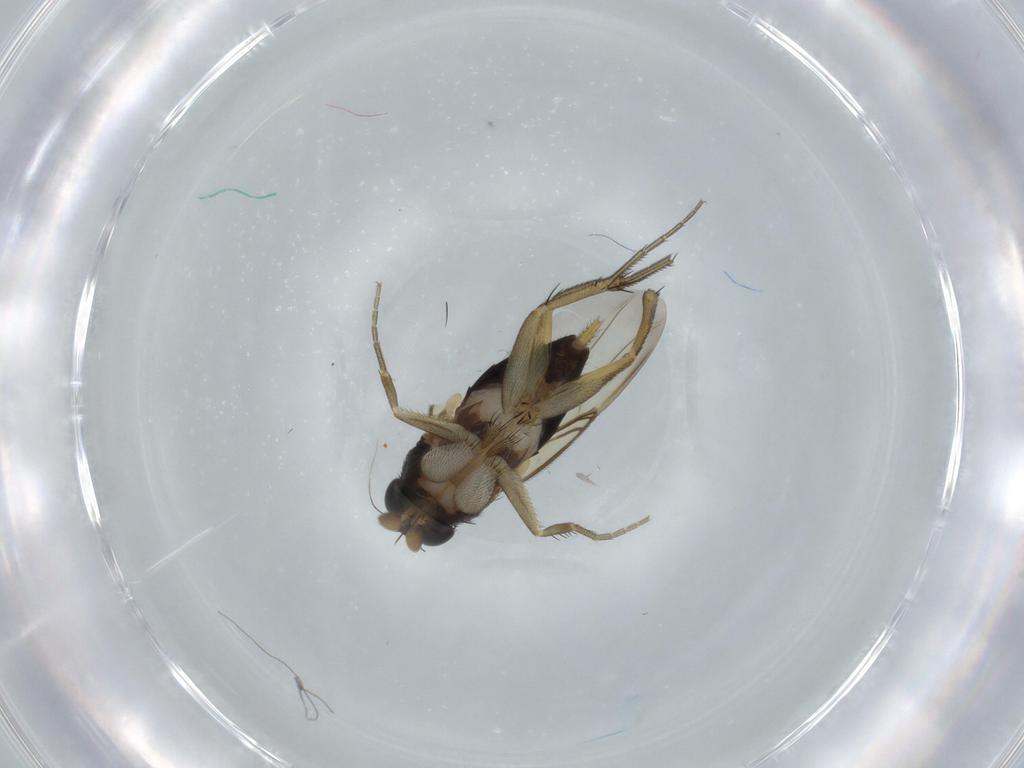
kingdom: Animalia
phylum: Arthropoda
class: Insecta
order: Diptera
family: Phoridae
